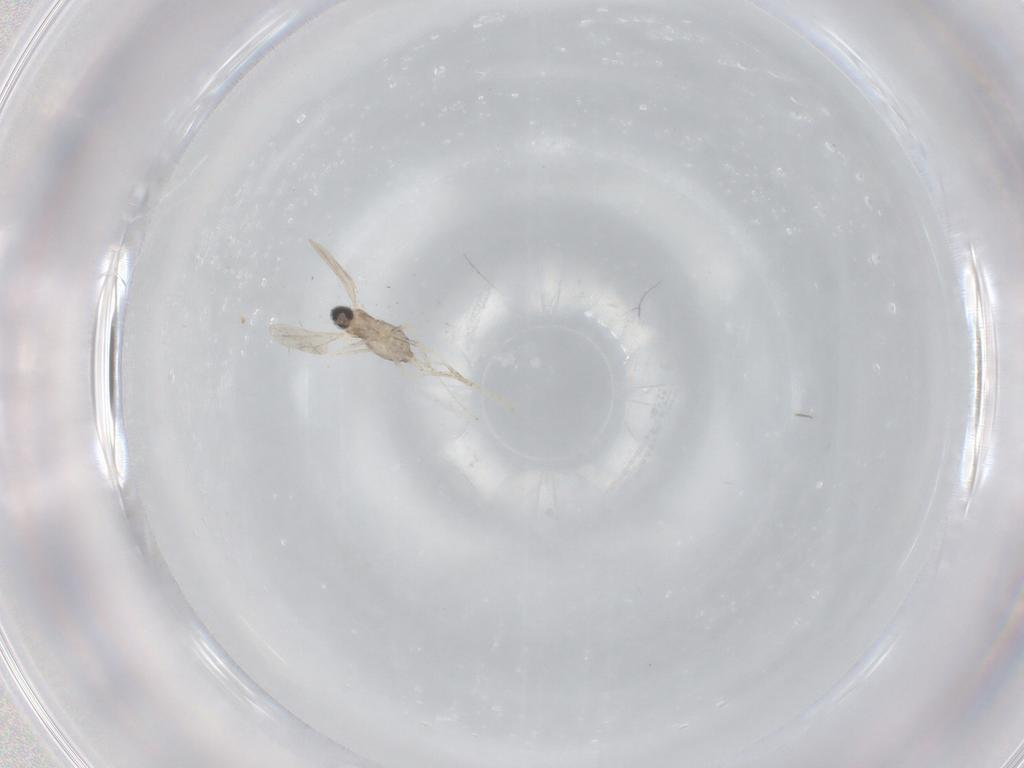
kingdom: Animalia
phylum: Arthropoda
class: Insecta
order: Diptera
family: Cecidomyiidae
